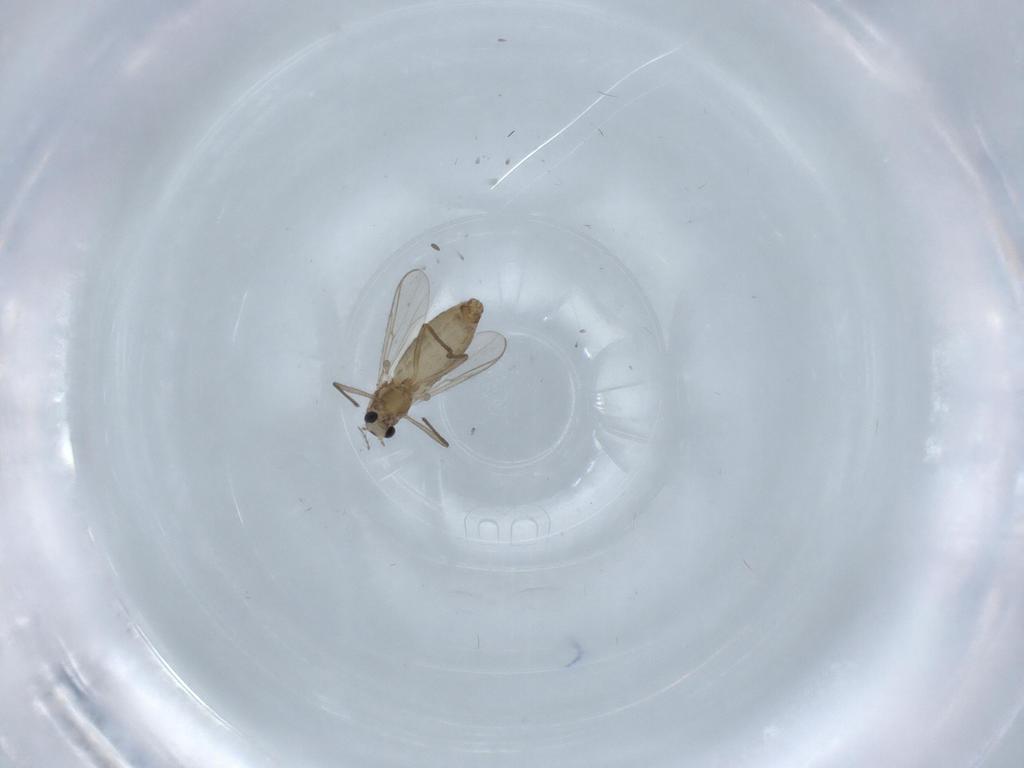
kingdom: Animalia
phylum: Arthropoda
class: Insecta
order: Diptera
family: Chironomidae
